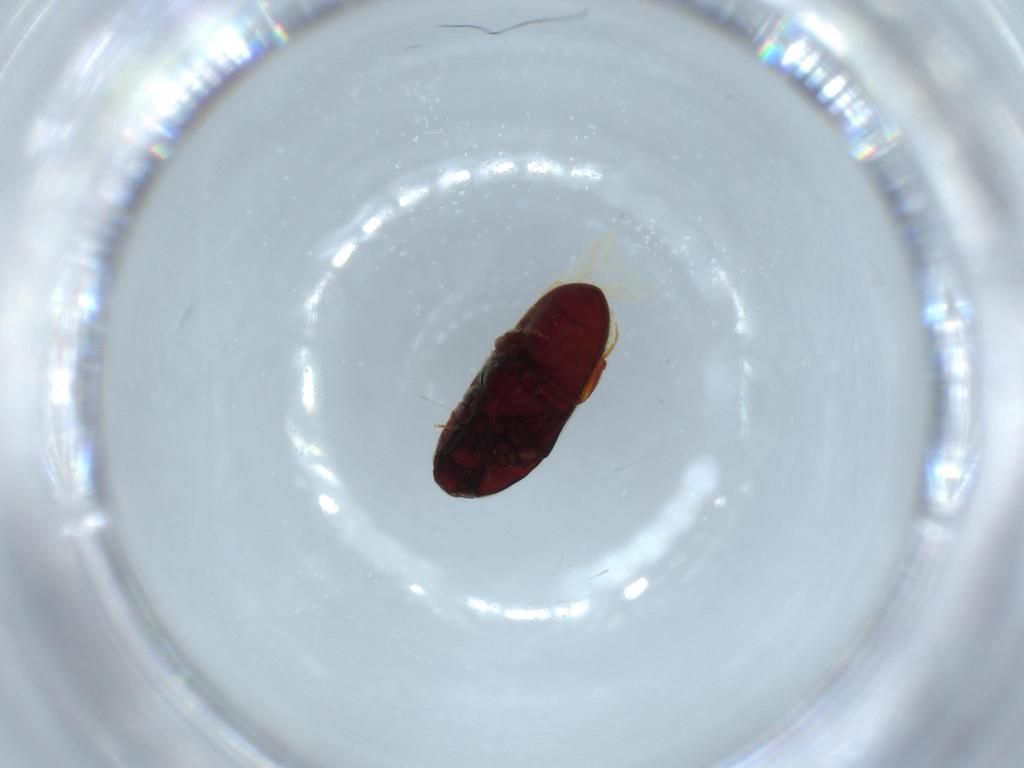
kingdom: Animalia
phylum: Arthropoda
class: Insecta
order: Coleoptera
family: Throscidae
